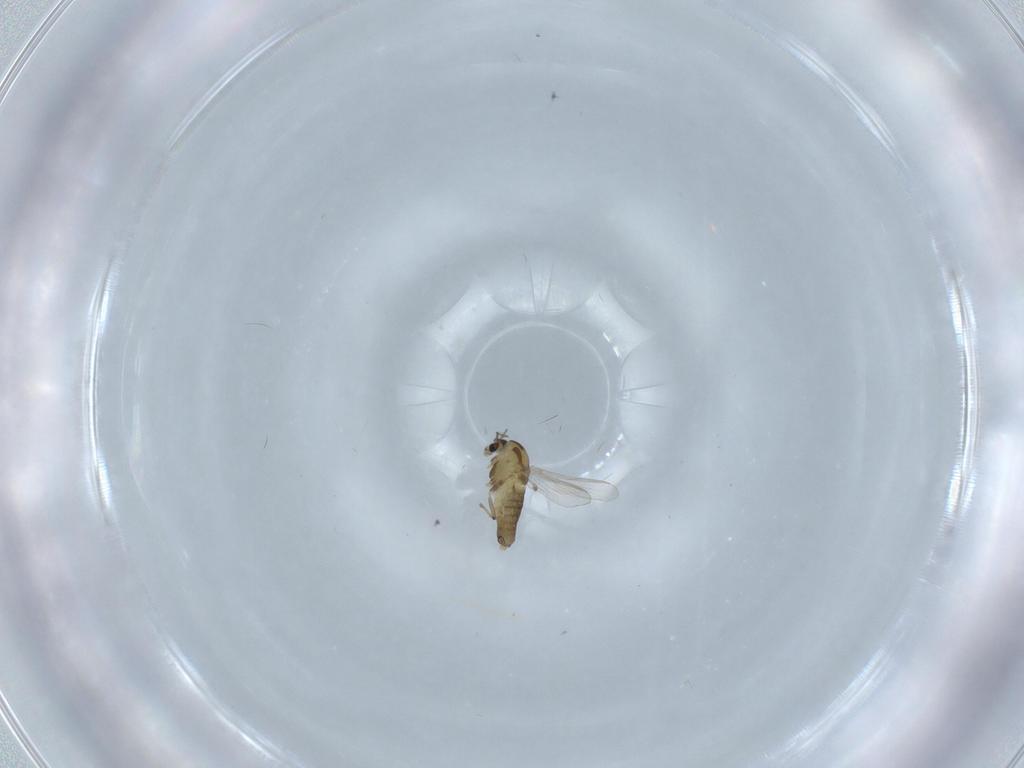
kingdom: Animalia
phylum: Arthropoda
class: Insecta
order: Diptera
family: Chironomidae
